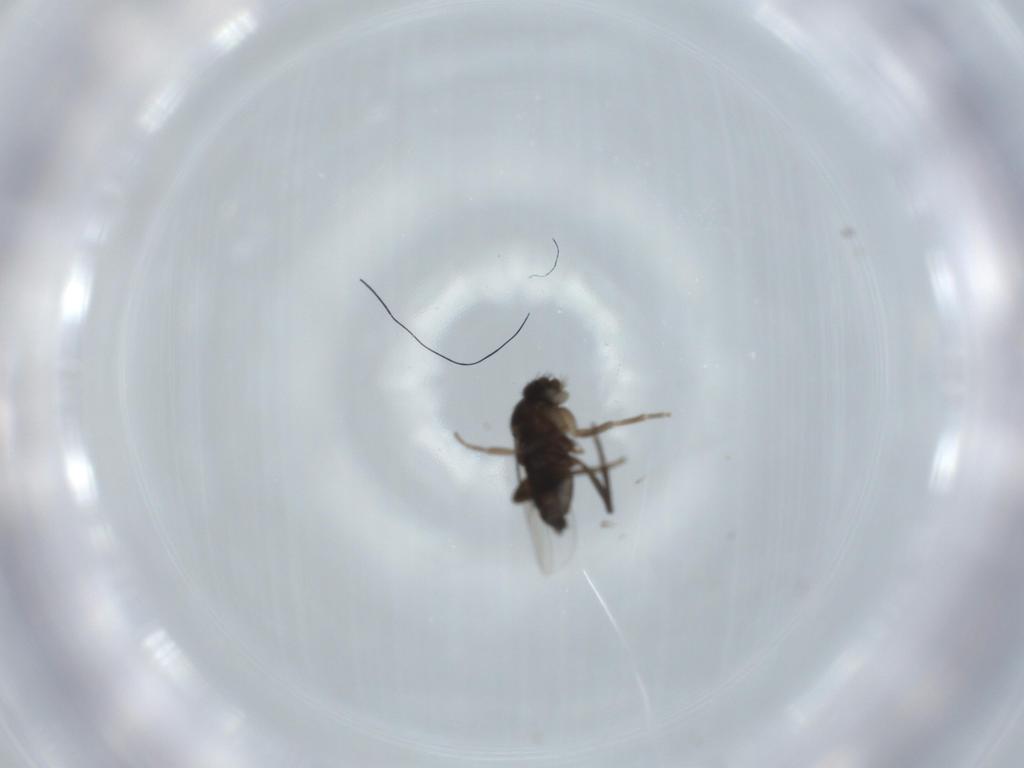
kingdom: Animalia
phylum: Arthropoda
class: Insecta
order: Diptera
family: Phoridae
